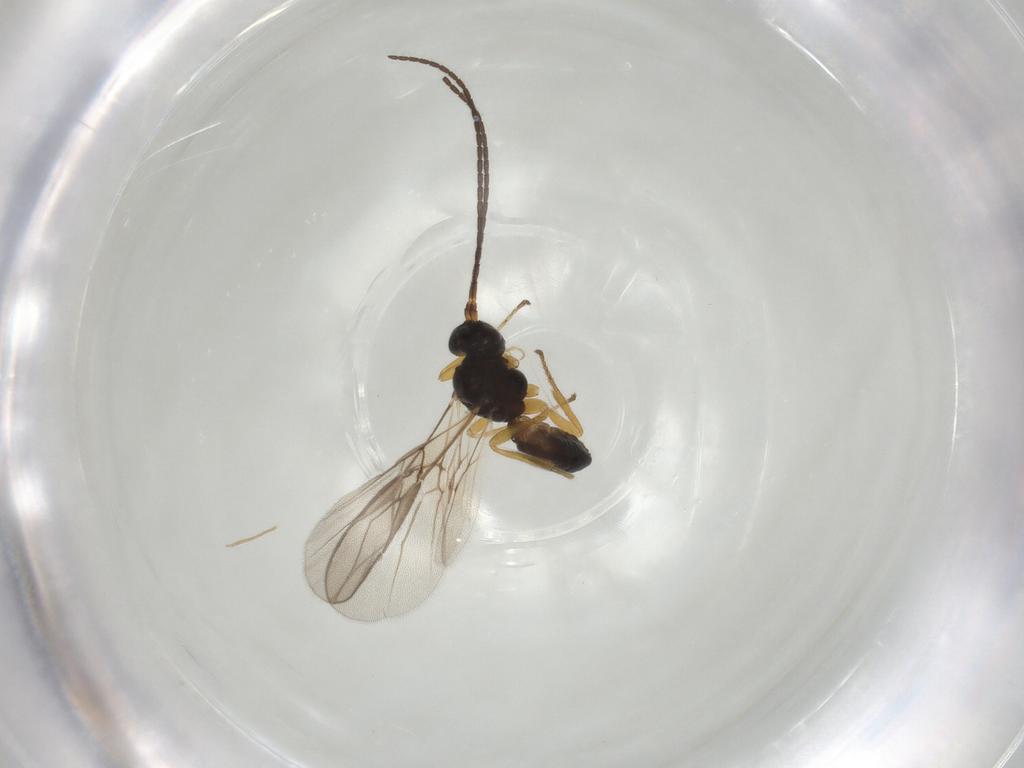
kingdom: Animalia
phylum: Arthropoda
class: Insecta
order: Hymenoptera
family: Braconidae
